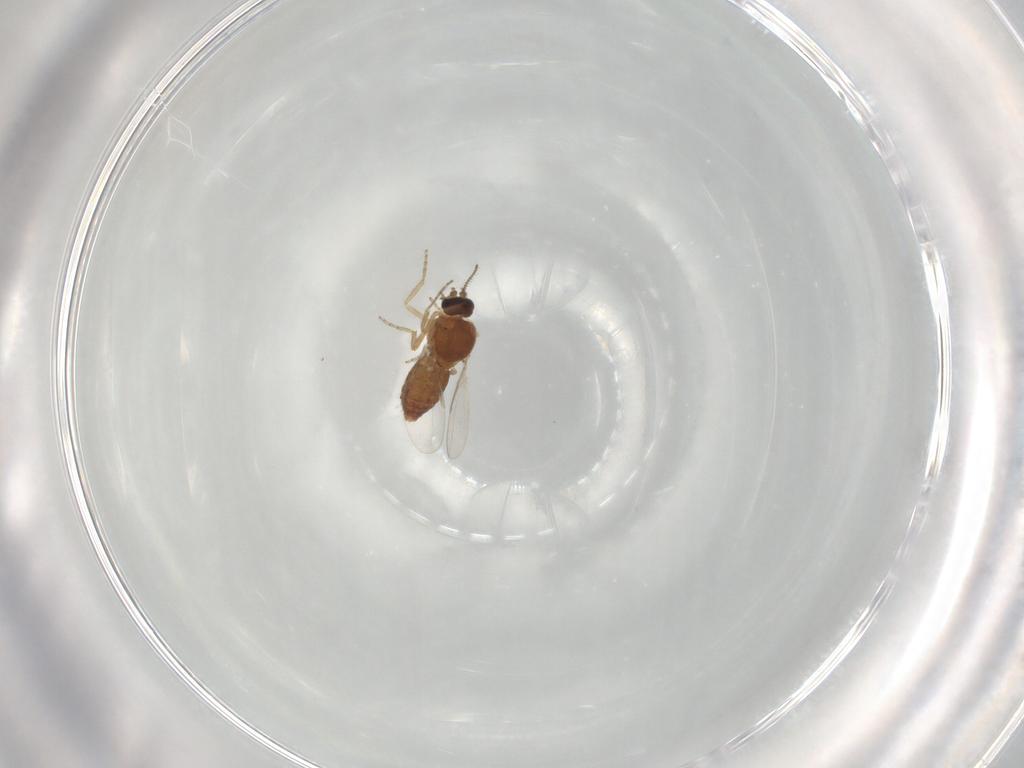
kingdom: Animalia
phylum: Arthropoda
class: Insecta
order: Diptera
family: Ceratopogonidae
